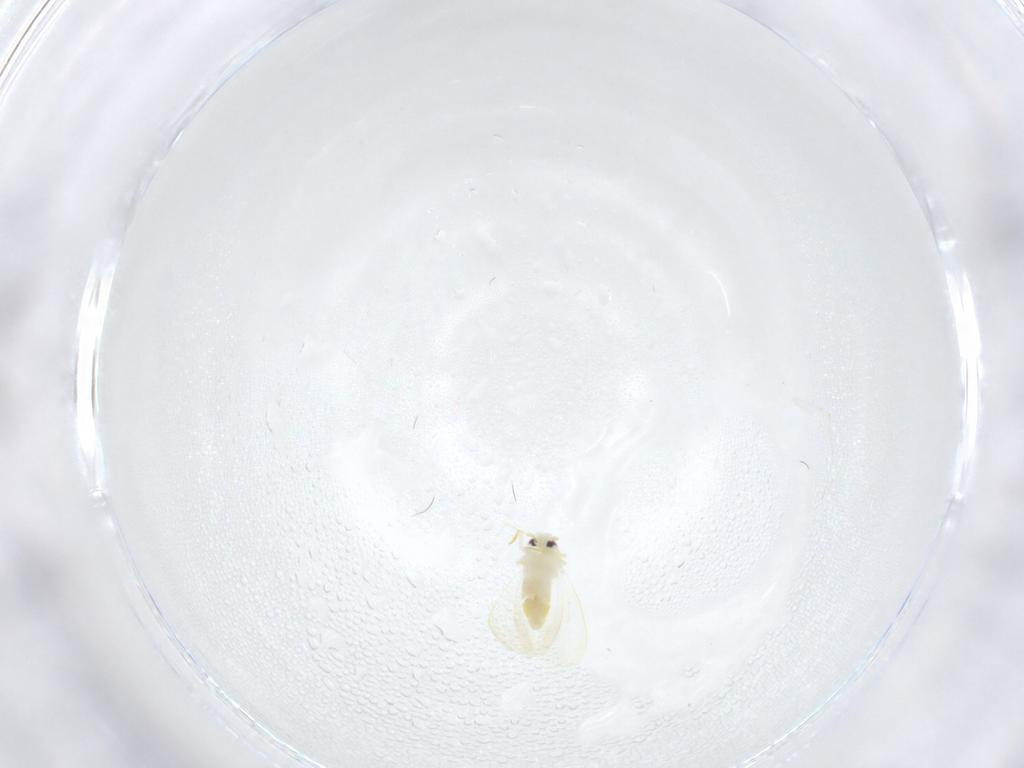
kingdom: Animalia
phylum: Arthropoda
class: Insecta
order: Hemiptera
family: Aleyrodidae
